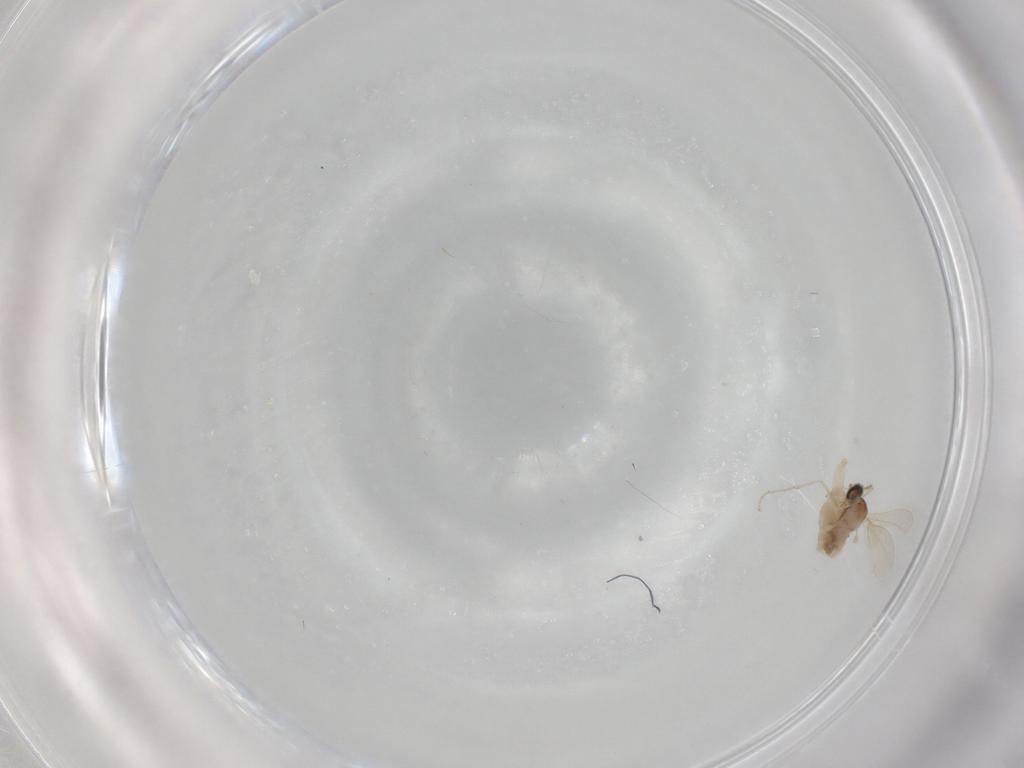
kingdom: Animalia
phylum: Arthropoda
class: Insecta
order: Diptera
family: Cecidomyiidae
